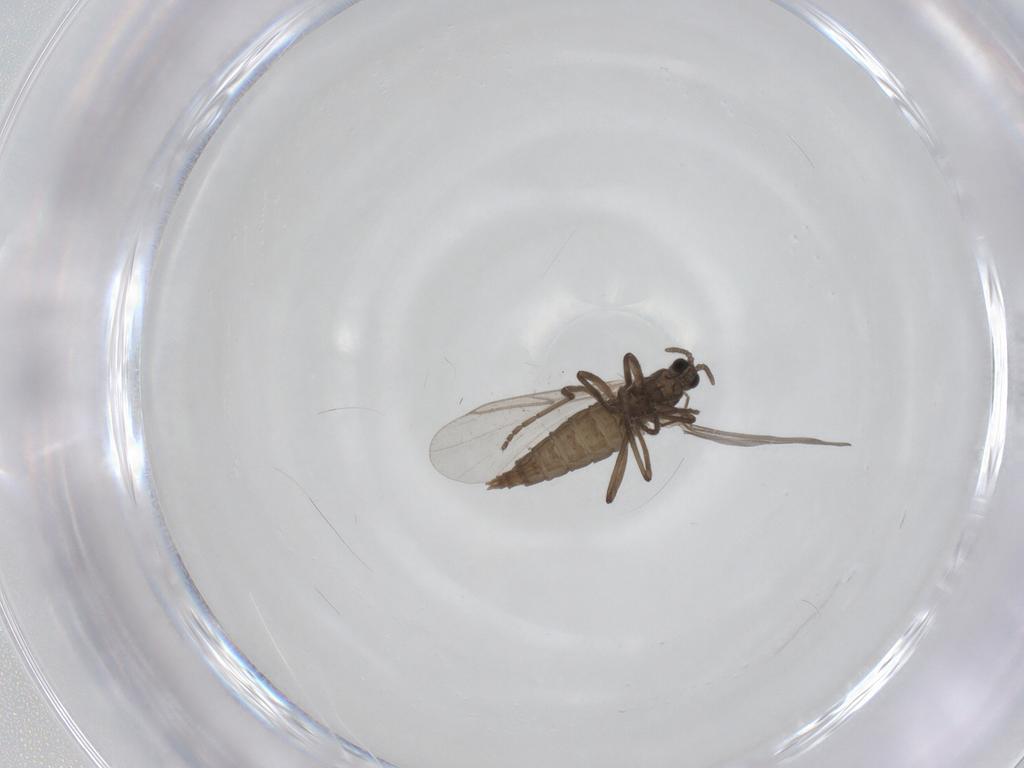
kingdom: Animalia
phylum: Arthropoda
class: Insecta
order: Diptera
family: Cecidomyiidae
